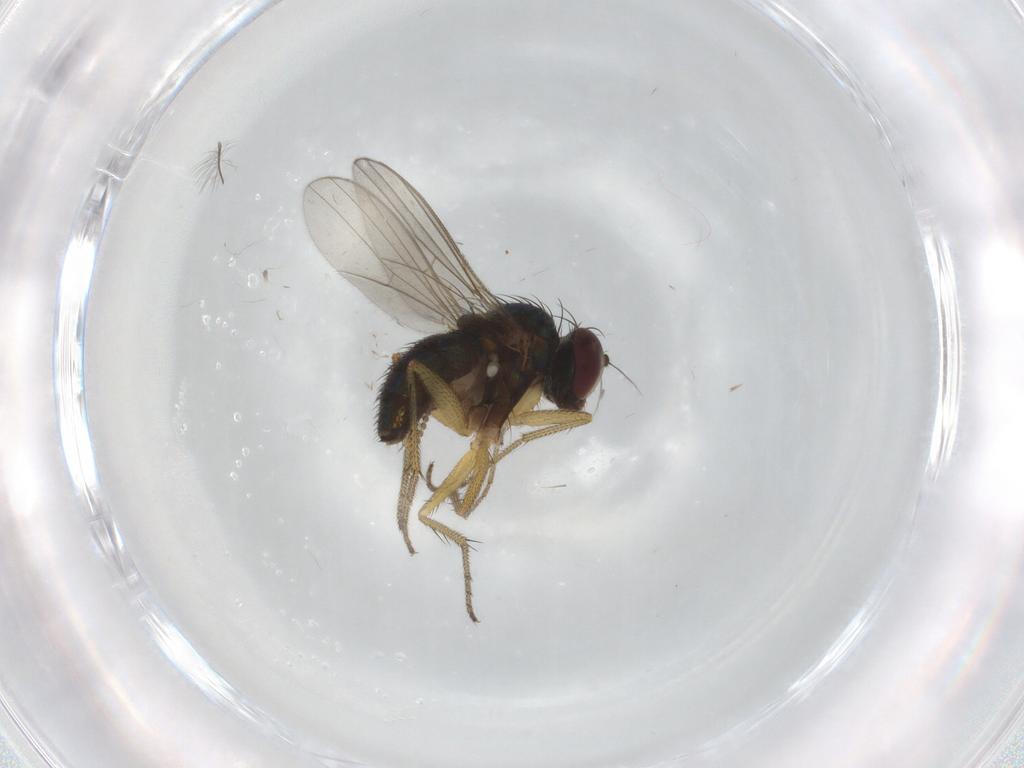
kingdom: Animalia
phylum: Arthropoda
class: Insecta
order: Diptera
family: Dolichopodidae
